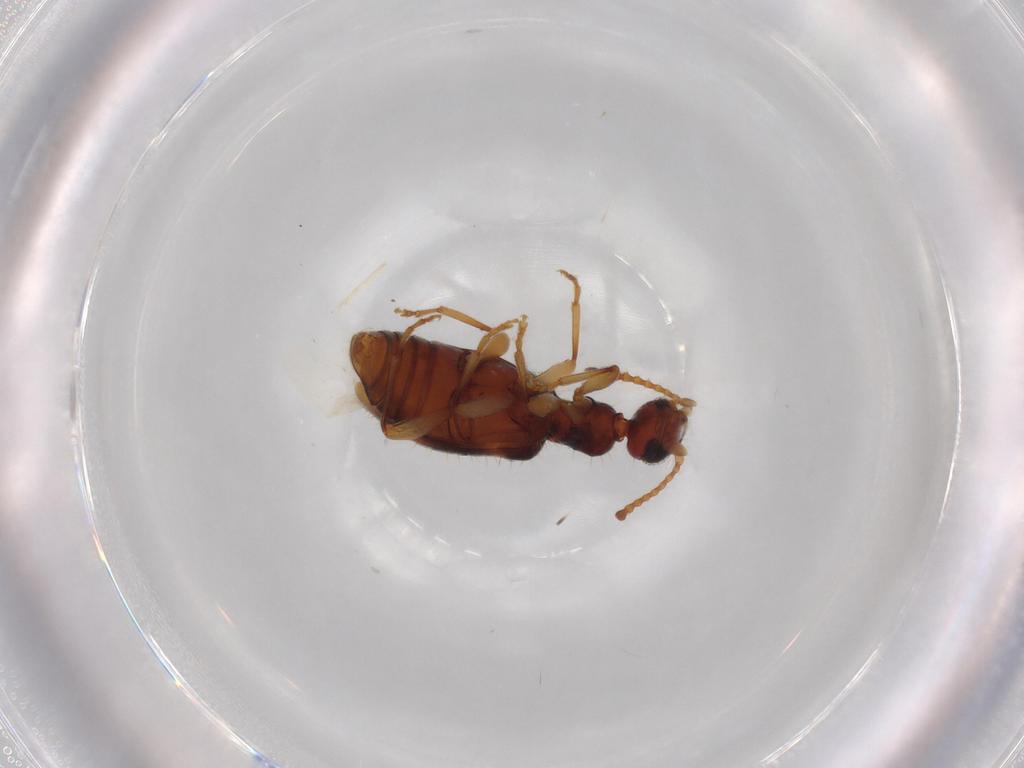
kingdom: Animalia
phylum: Arthropoda
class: Insecta
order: Coleoptera
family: Anthicidae
